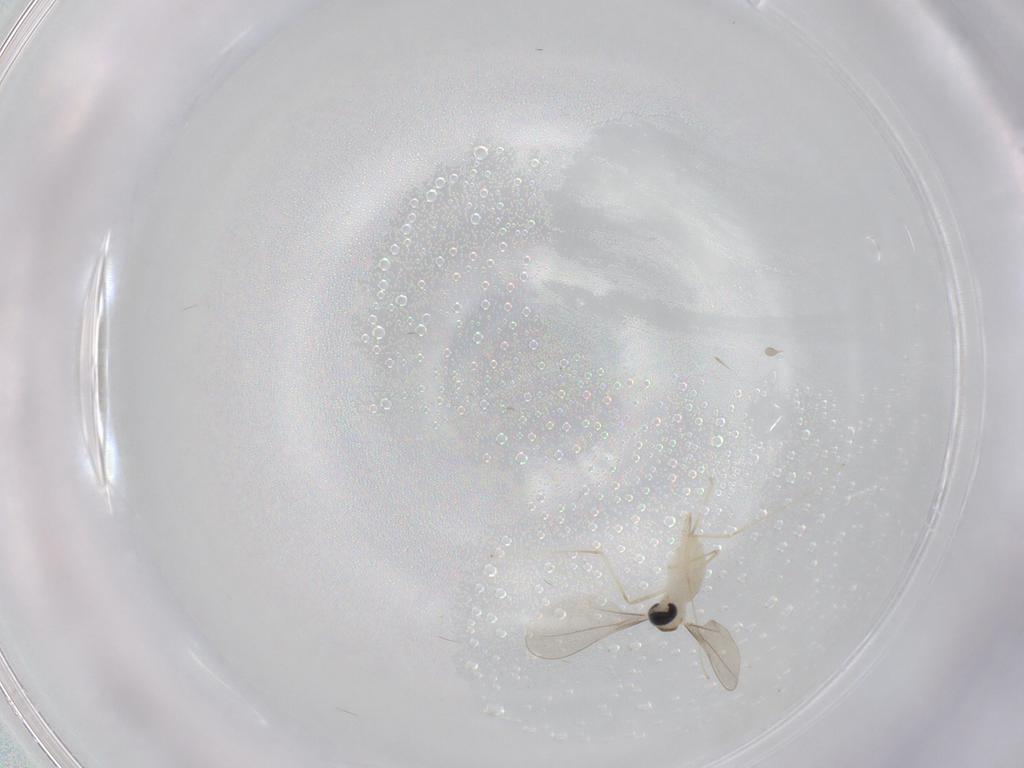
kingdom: Animalia
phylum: Arthropoda
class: Insecta
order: Diptera
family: Cecidomyiidae
